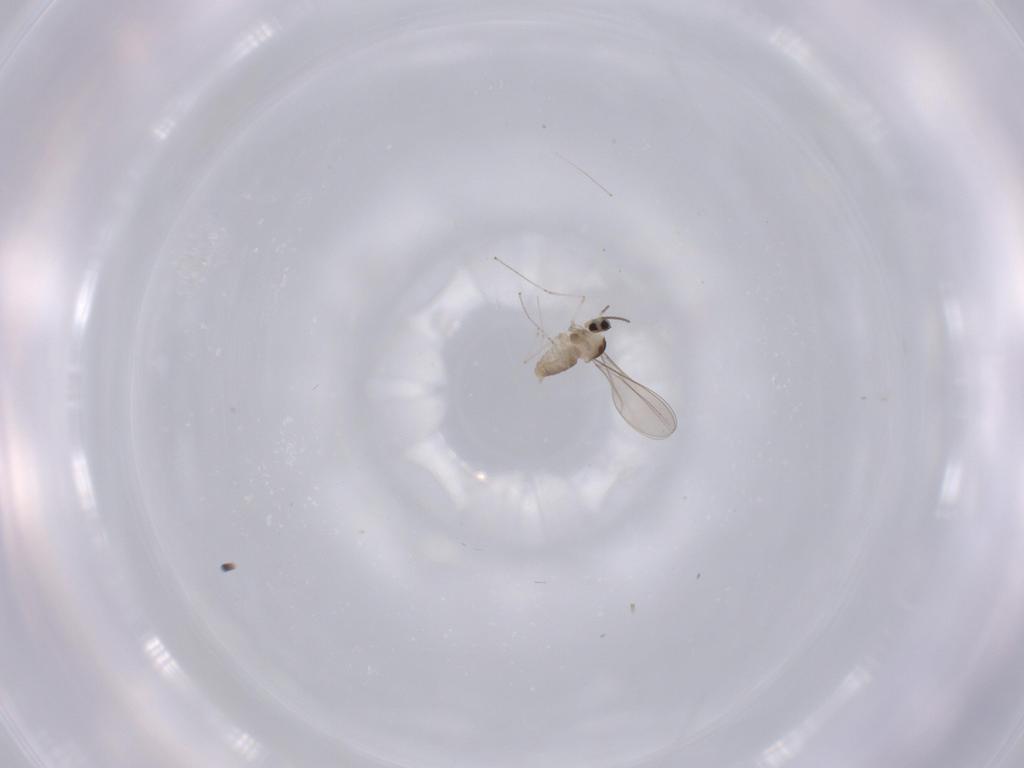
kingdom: Animalia
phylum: Arthropoda
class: Insecta
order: Diptera
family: Cecidomyiidae
